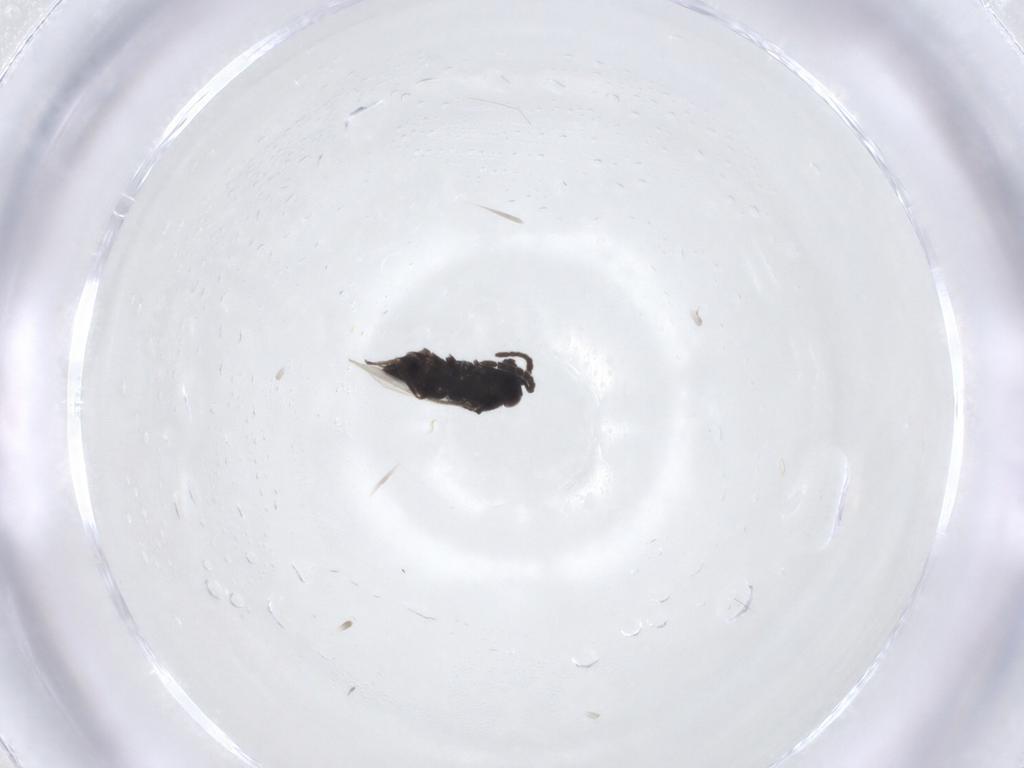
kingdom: Animalia
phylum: Arthropoda
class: Insecta
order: Hymenoptera
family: Encyrtidae
